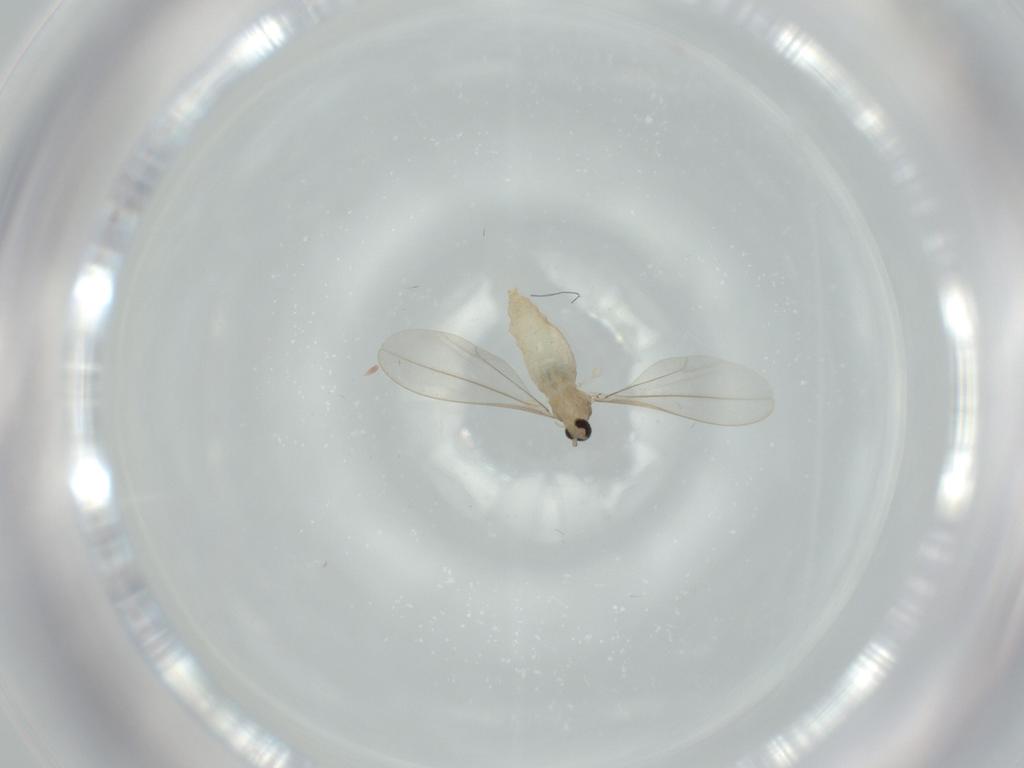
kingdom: Animalia
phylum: Arthropoda
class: Insecta
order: Diptera
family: Cecidomyiidae
